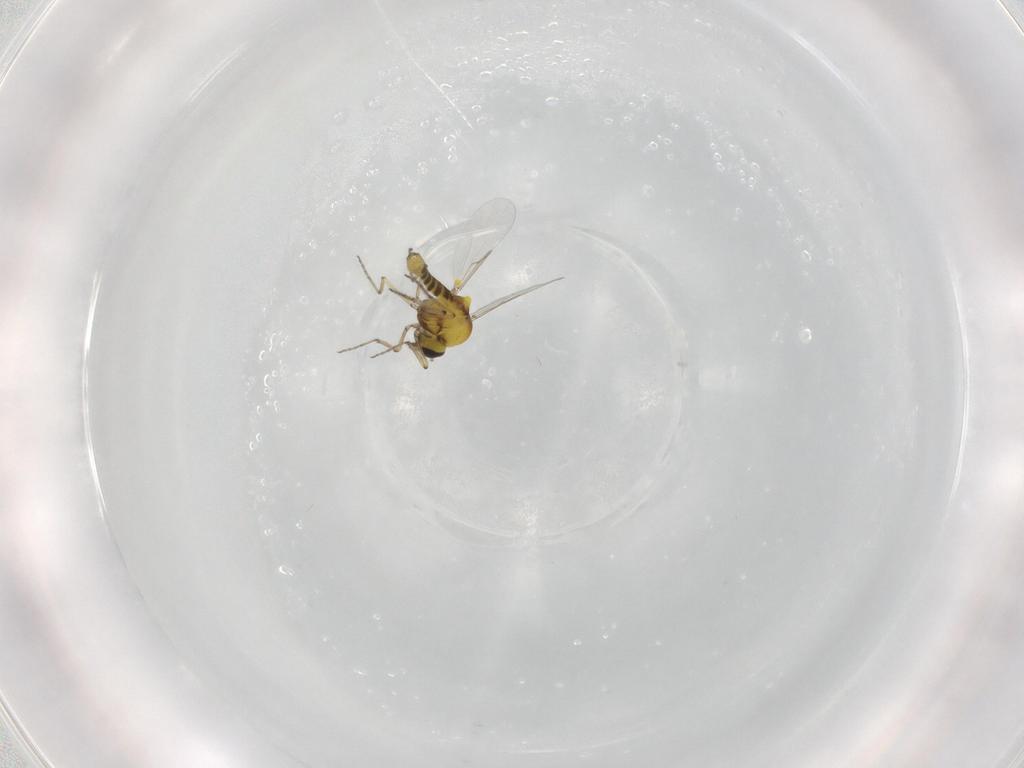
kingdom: Animalia
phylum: Arthropoda
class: Insecta
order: Diptera
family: Ceratopogonidae
